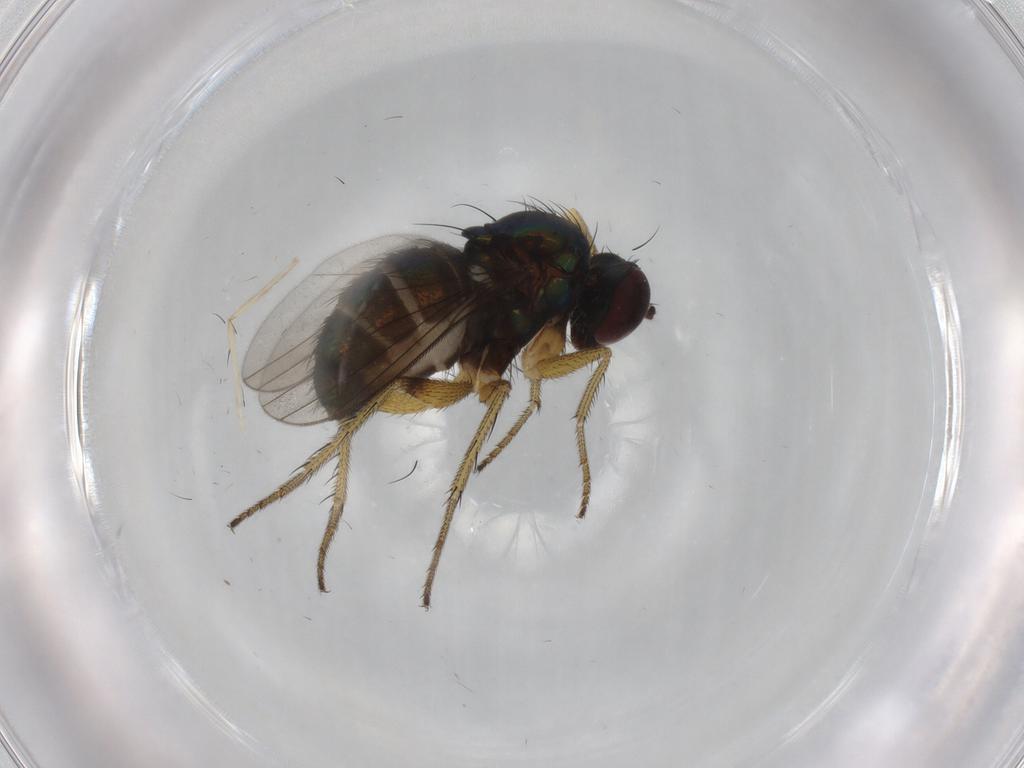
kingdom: Animalia
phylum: Arthropoda
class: Insecta
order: Diptera
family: Dolichopodidae
